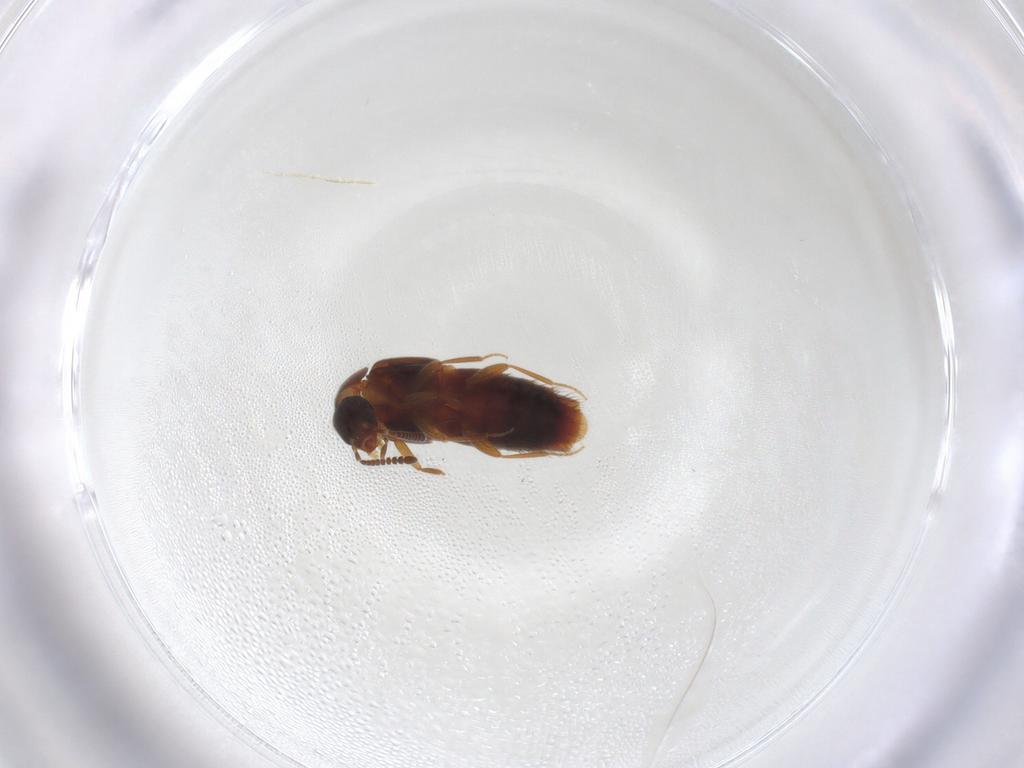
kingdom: Animalia
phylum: Arthropoda
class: Insecta
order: Coleoptera
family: Staphylinidae
